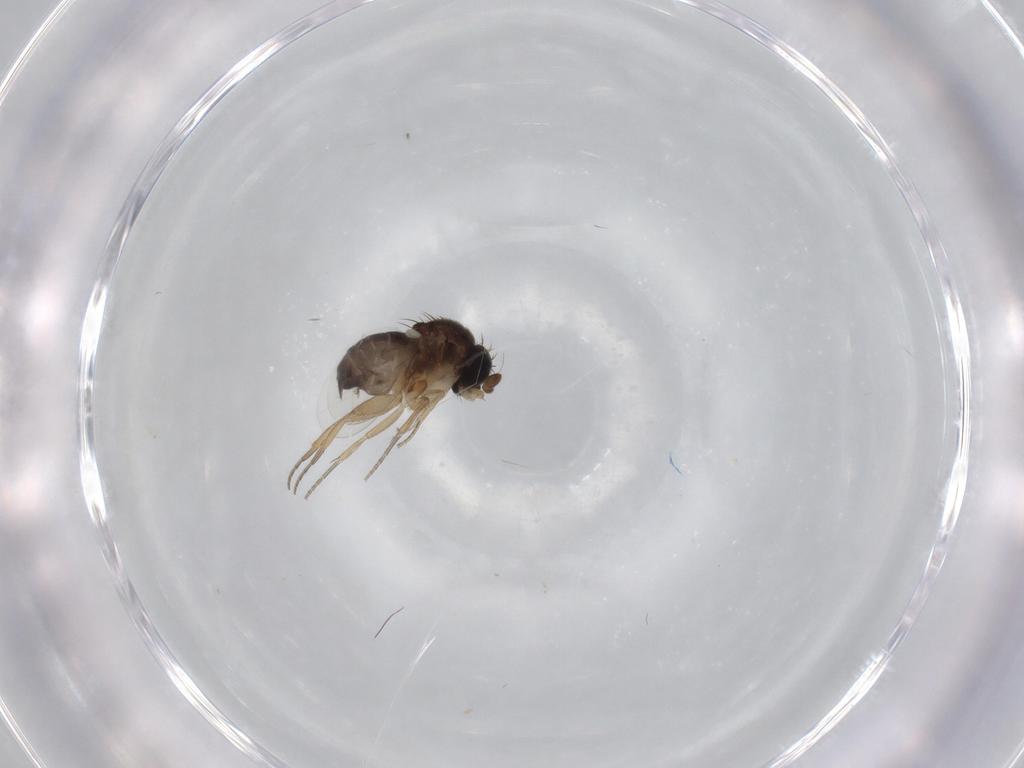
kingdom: Animalia
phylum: Arthropoda
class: Insecta
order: Diptera
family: Phoridae
